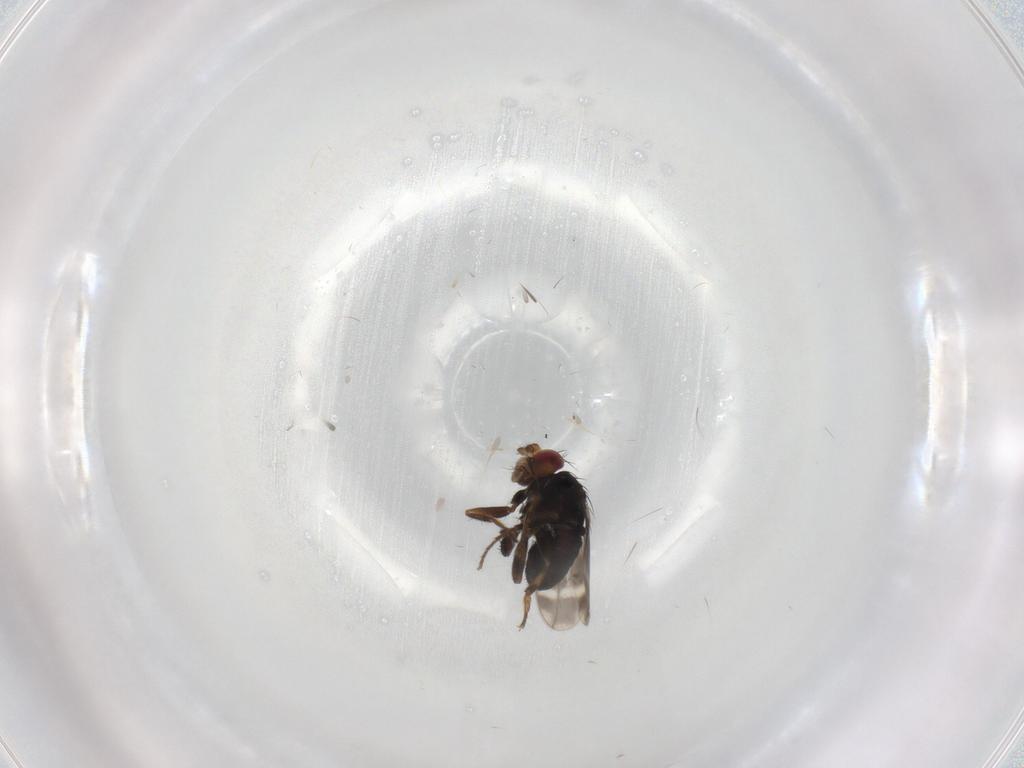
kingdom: Animalia
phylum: Arthropoda
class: Insecta
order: Diptera
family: Sphaeroceridae
